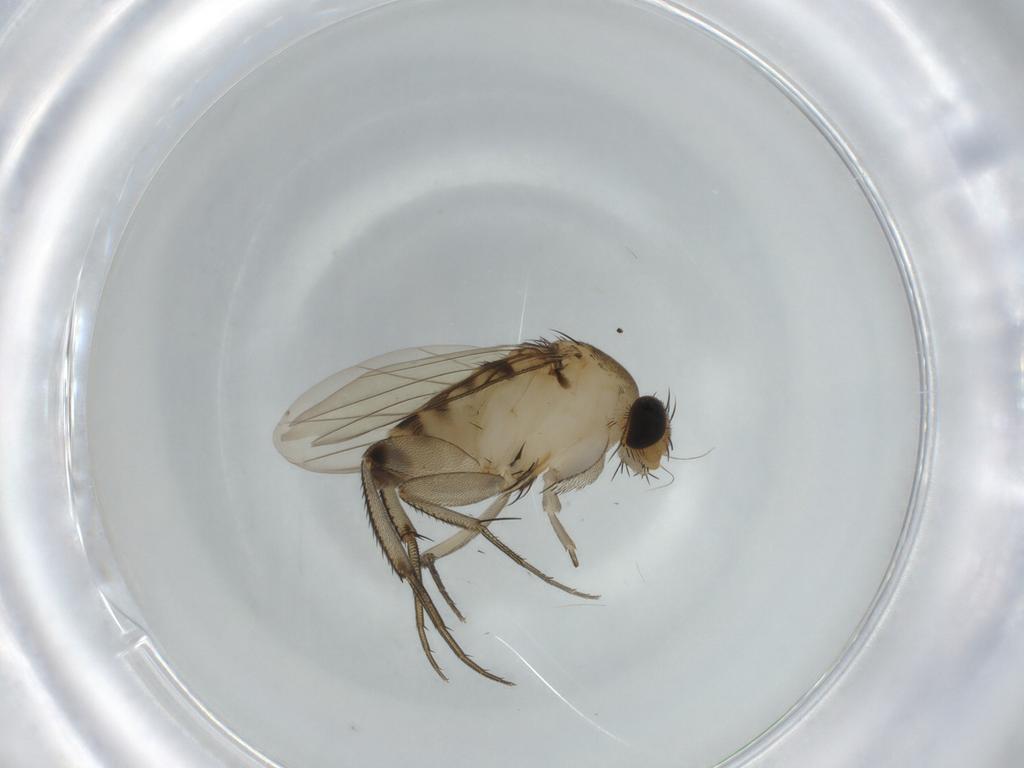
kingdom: Animalia
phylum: Arthropoda
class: Insecta
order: Diptera
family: Phoridae
